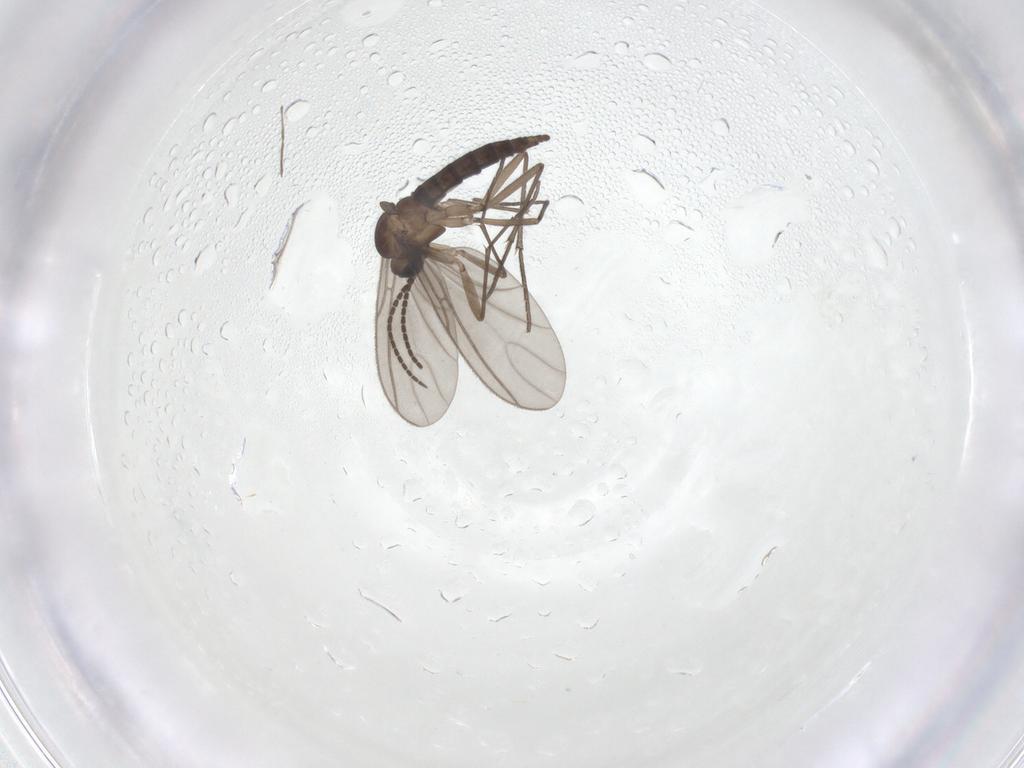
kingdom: Animalia
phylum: Arthropoda
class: Insecta
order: Diptera
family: Sciaridae
